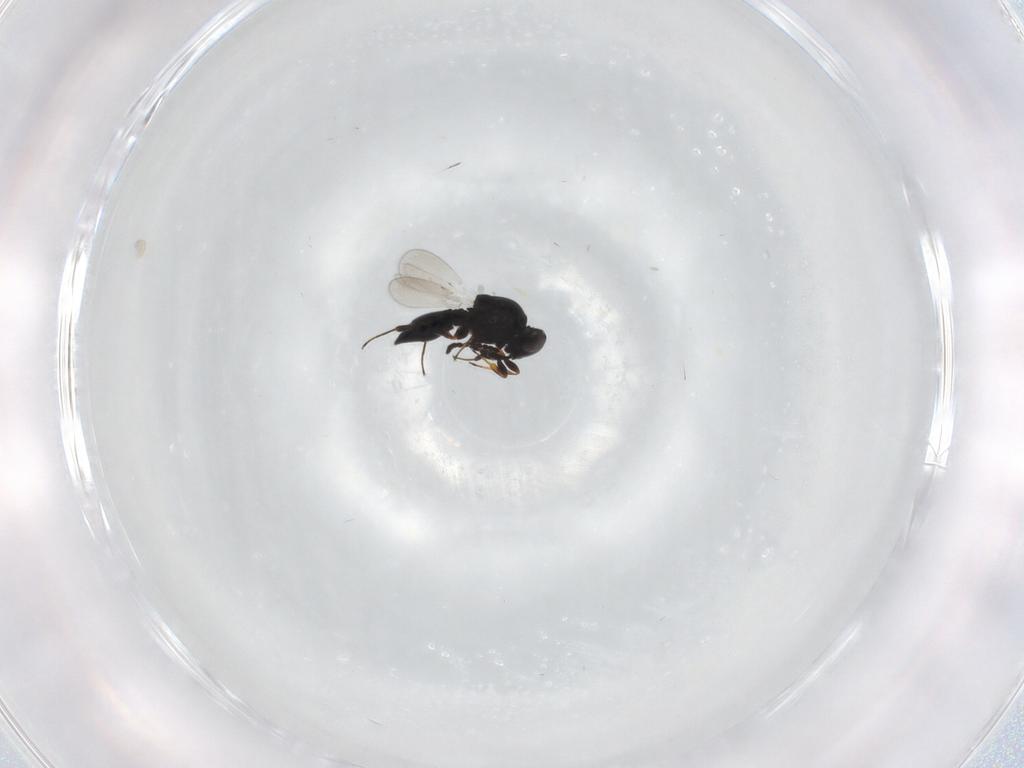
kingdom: Animalia
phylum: Arthropoda
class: Insecta
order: Hymenoptera
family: Platygastridae
